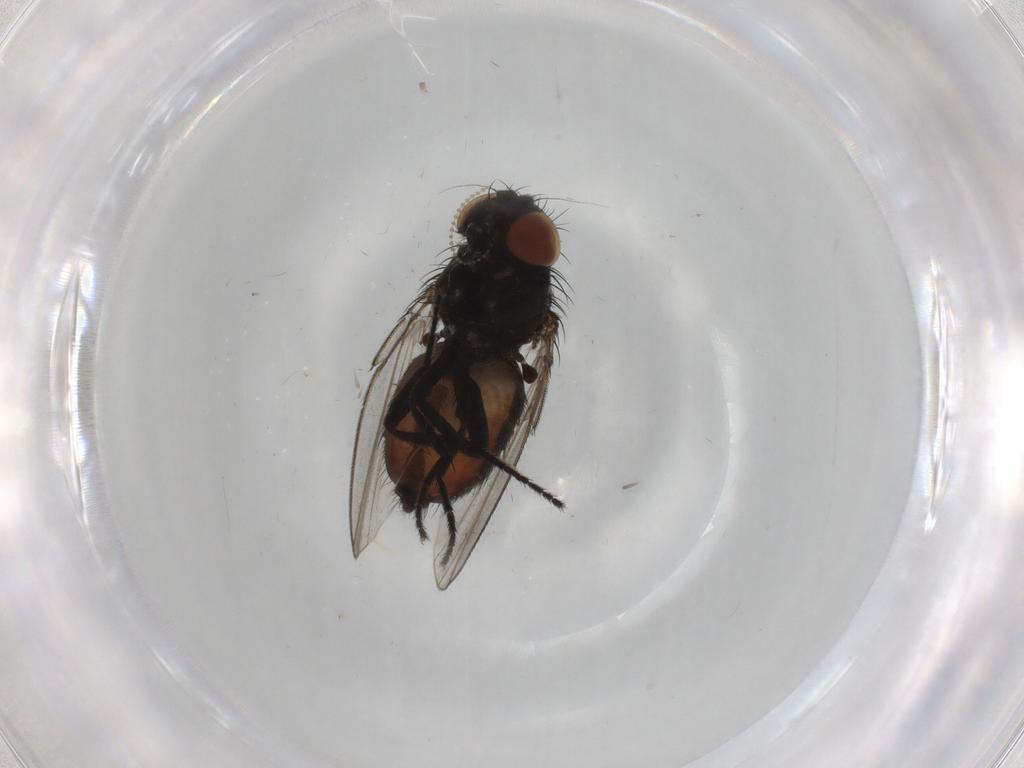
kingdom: Animalia
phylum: Arthropoda
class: Insecta
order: Diptera
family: Milichiidae
